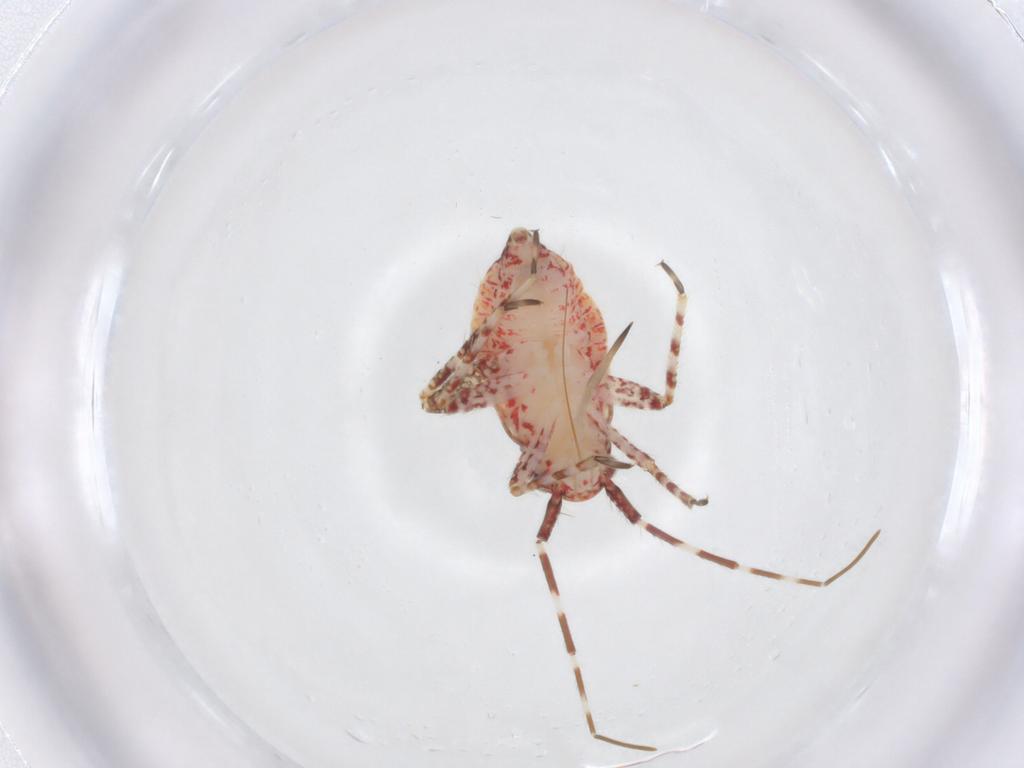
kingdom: Animalia
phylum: Arthropoda
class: Insecta
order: Hemiptera
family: Miridae
